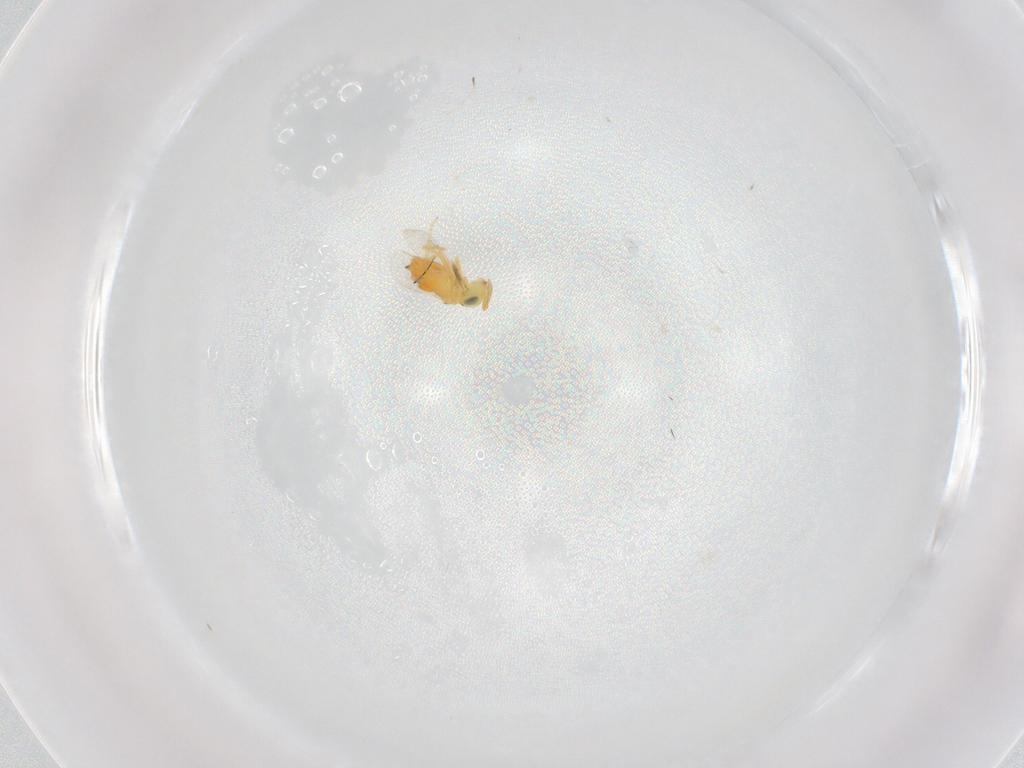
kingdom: Animalia
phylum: Arthropoda
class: Insecta
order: Hymenoptera
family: Encyrtidae
